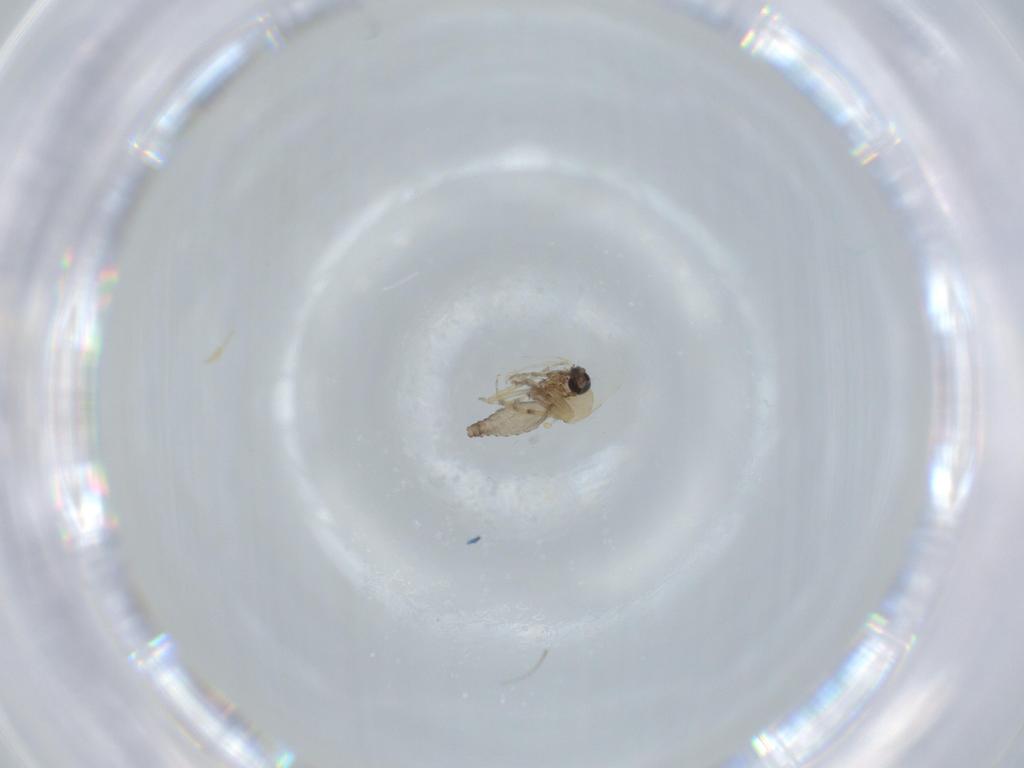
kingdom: Animalia
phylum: Arthropoda
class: Insecta
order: Diptera
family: Ceratopogonidae
